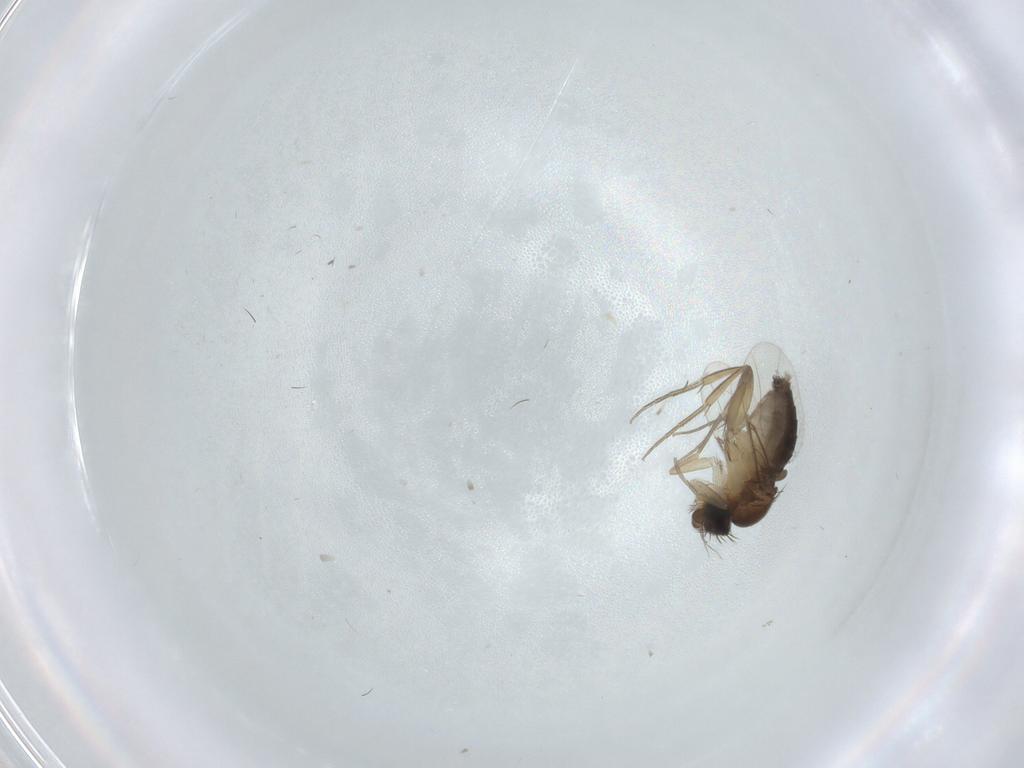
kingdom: Animalia
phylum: Arthropoda
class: Insecta
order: Diptera
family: Phoridae
